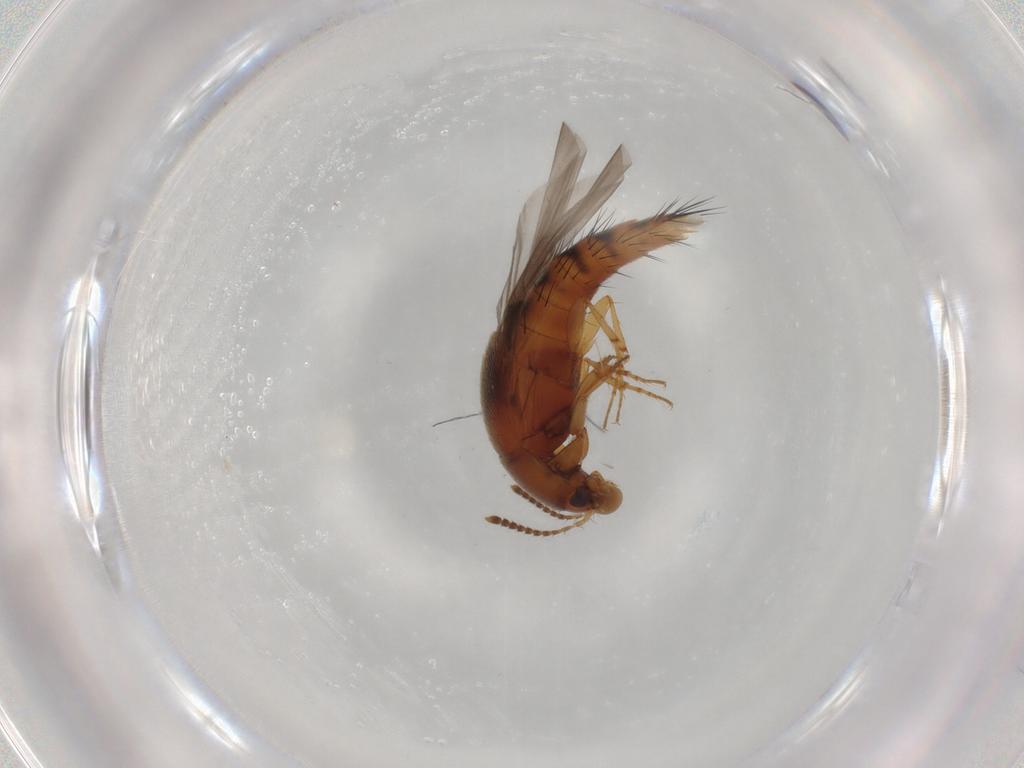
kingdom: Animalia
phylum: Arthropoda
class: Insecta
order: Coleoptera
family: Staphylinidae
